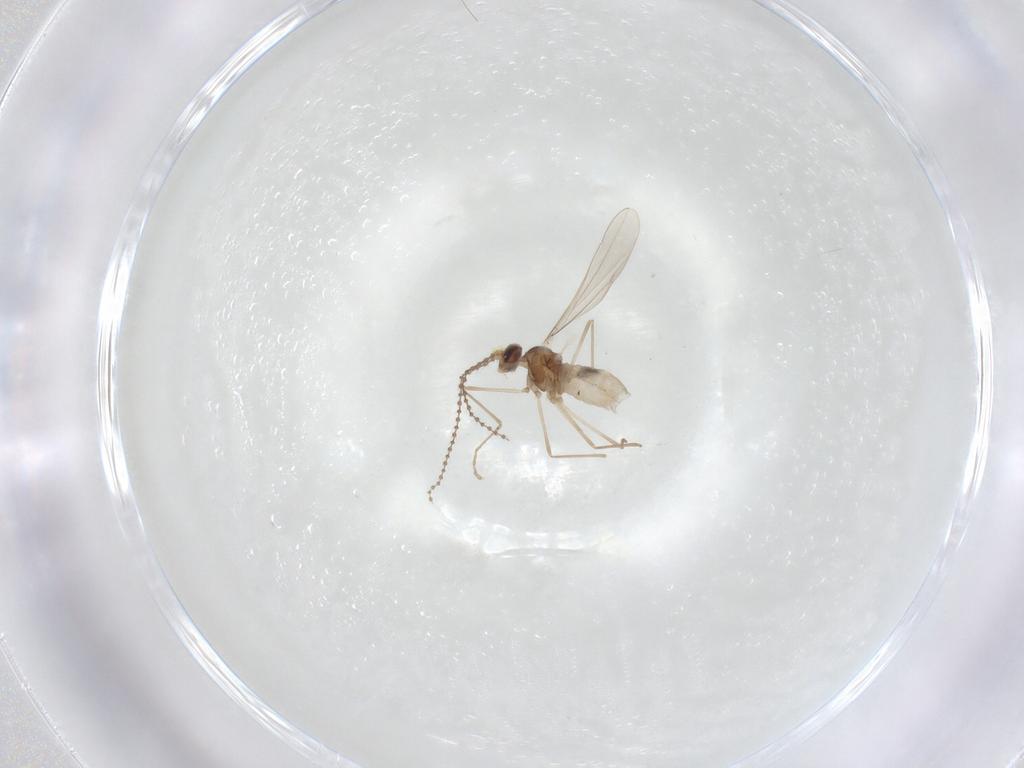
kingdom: Animalia
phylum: Arthropoda
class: Insecta
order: Diptera
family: Cecidomyiidae
